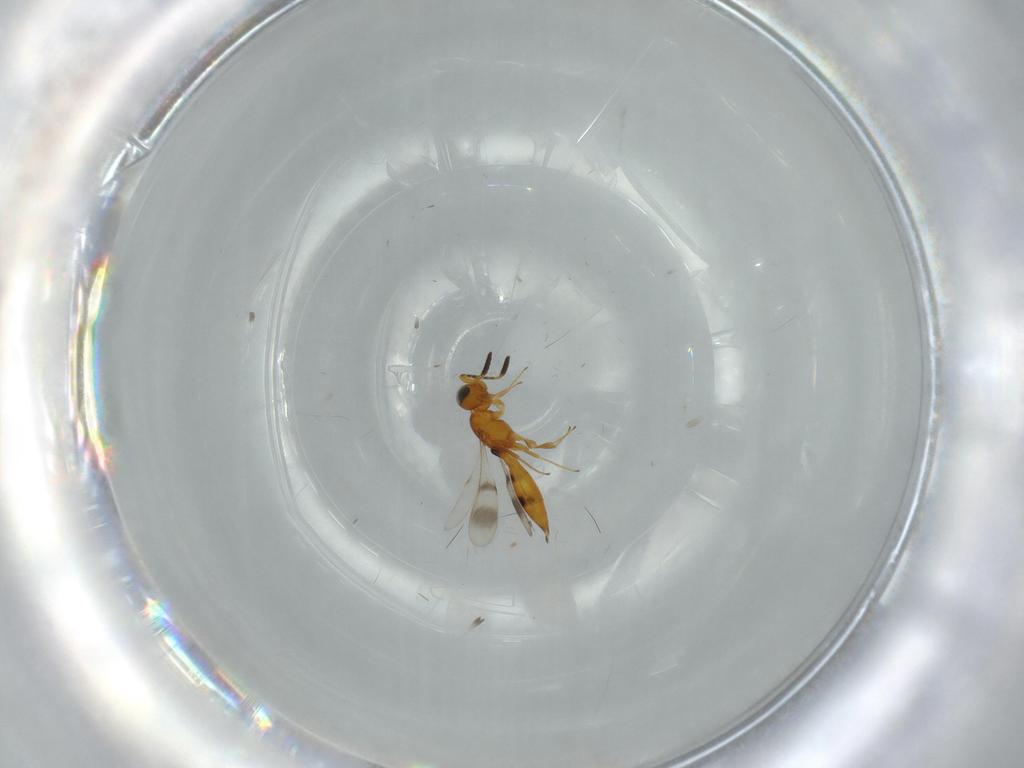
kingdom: Animalia
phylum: Arthropoda
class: Insecta
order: Hymenoptera
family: Scelionidae
